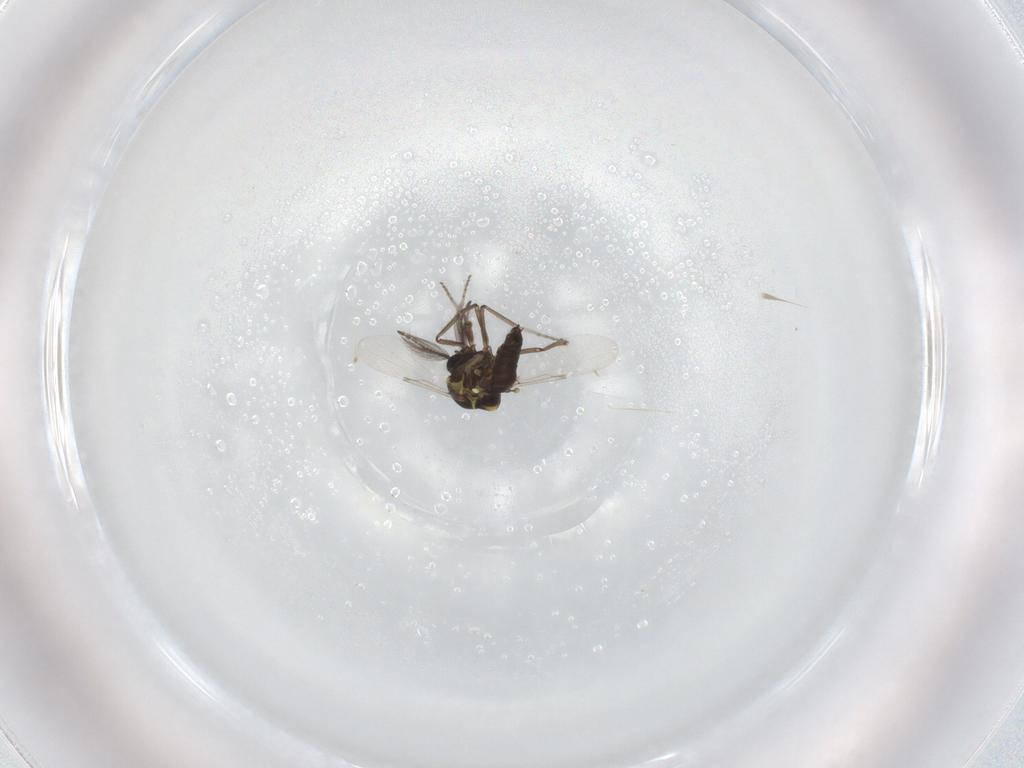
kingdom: Animalia
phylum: Arthropoda
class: Insecta
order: Diptera
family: Ceratopogonidae
